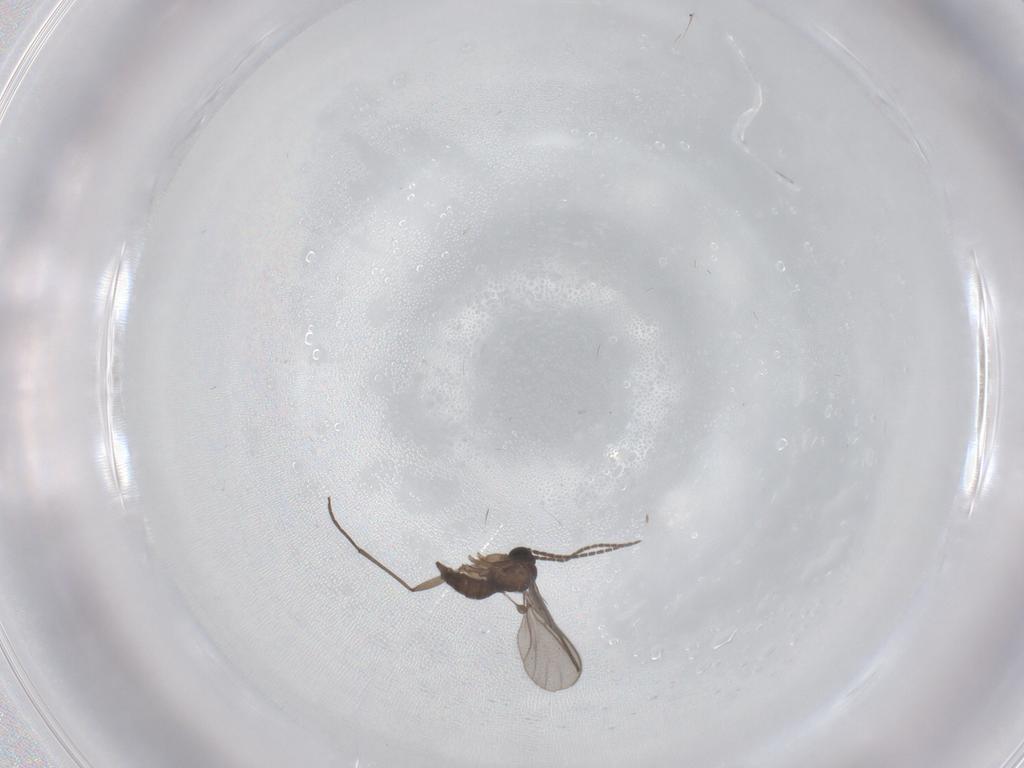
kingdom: Animalia
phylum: Arthropoda
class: Insecta
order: Diptera
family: Sciaridae
